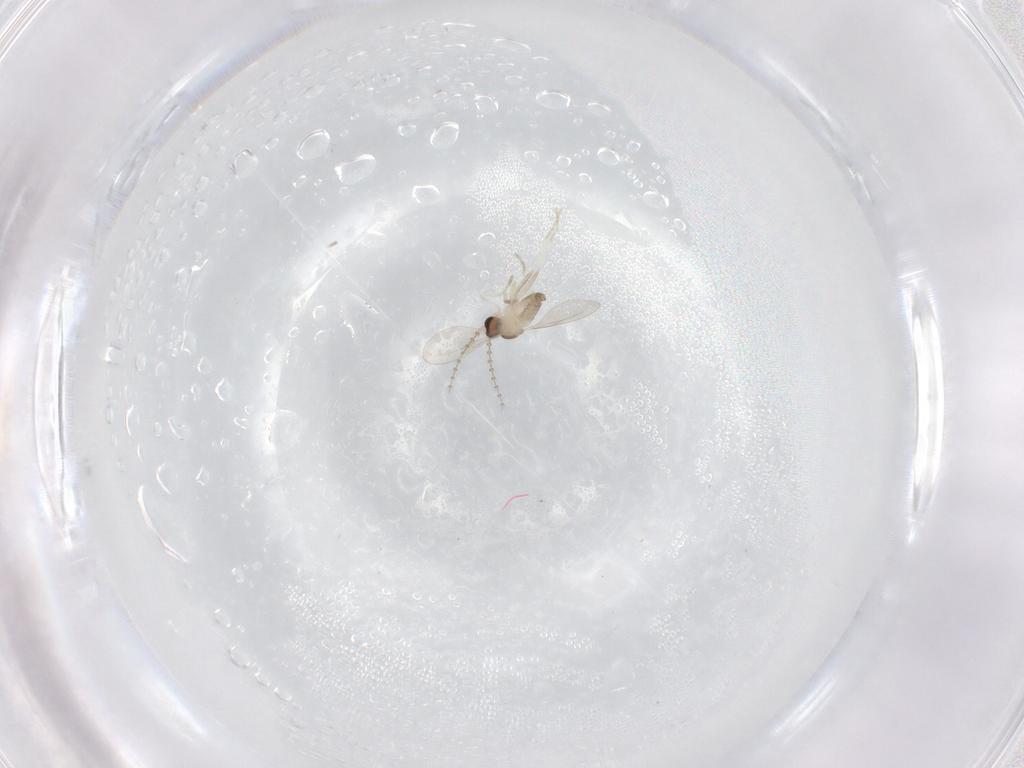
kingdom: Animalia
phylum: Arthropoda
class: Insecta
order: Diptera
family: Cecidomyiidae
